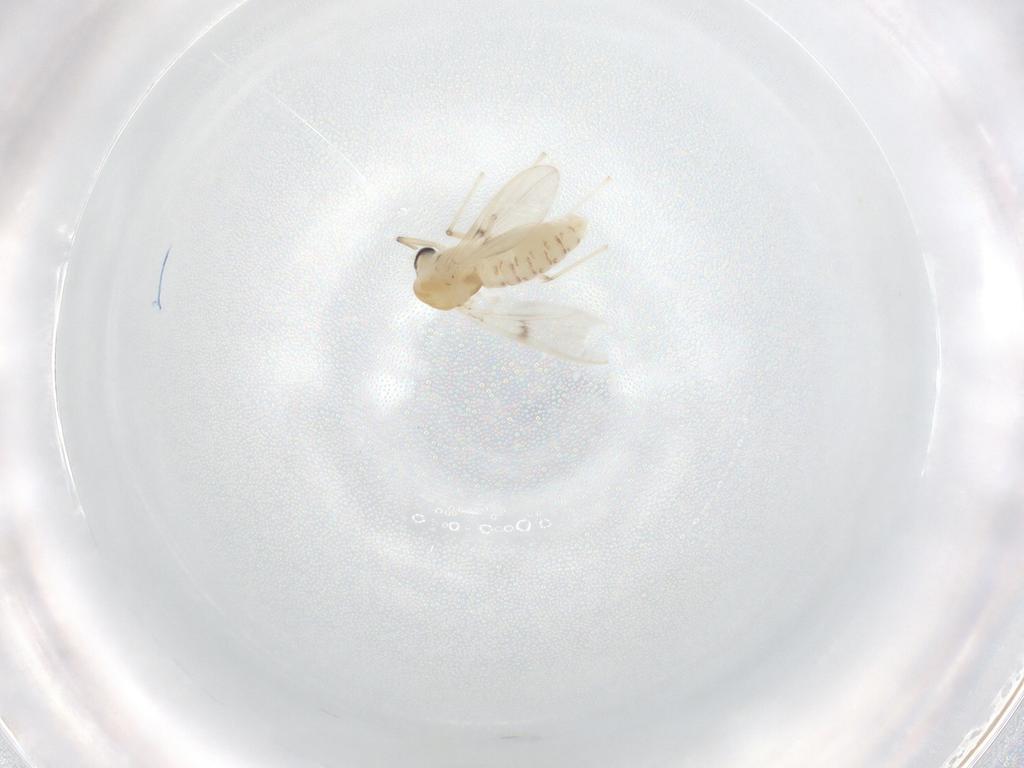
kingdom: Animalia
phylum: Arthropoda
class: Insecta
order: Diptera
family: Chironomidae
